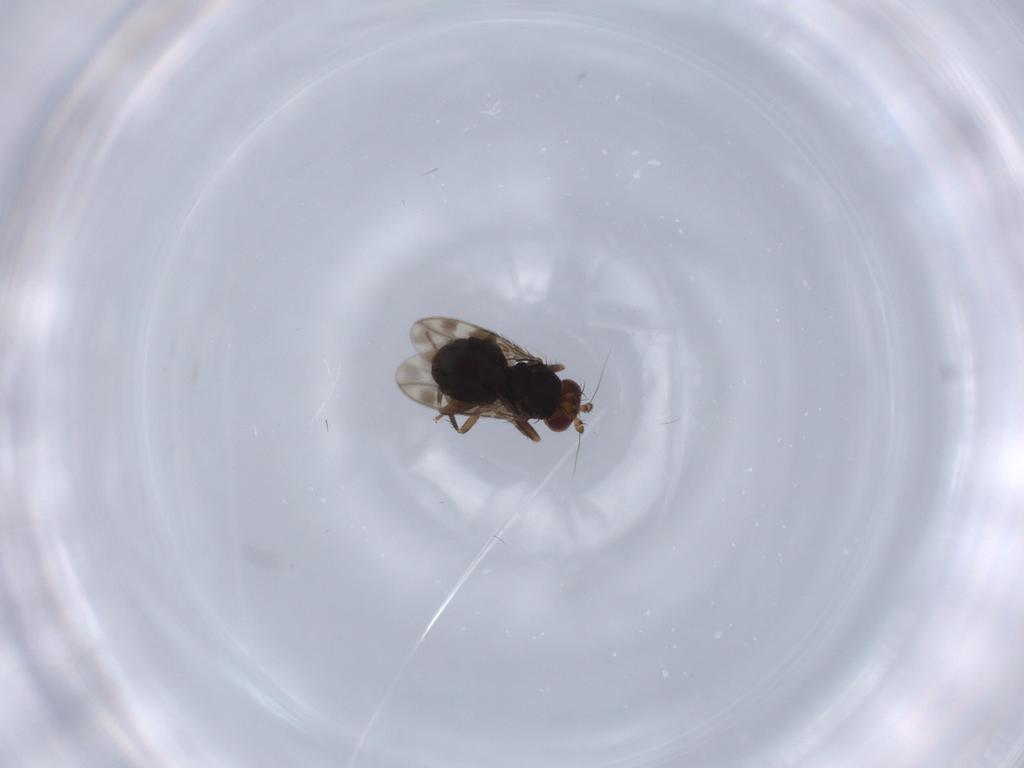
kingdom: Animalia
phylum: Arthropoda
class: Insecta
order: Diptera
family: Sphaeroceridae
